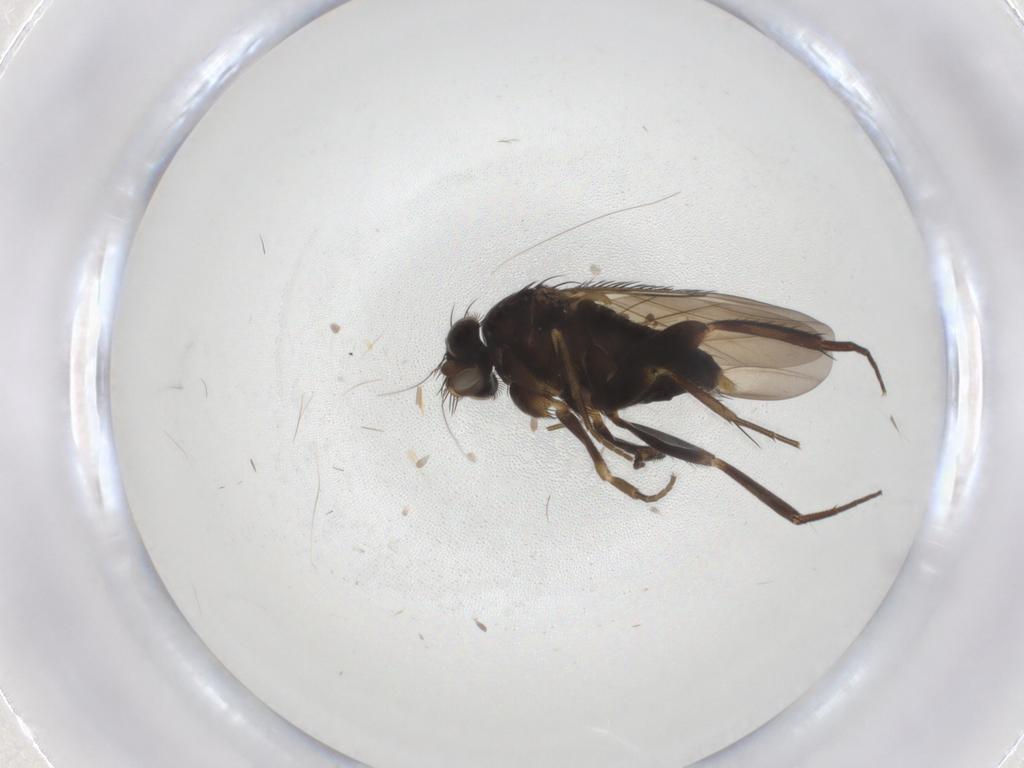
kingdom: Animalia
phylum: Arthropoda
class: Insecta
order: Diptera
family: Phoridae
